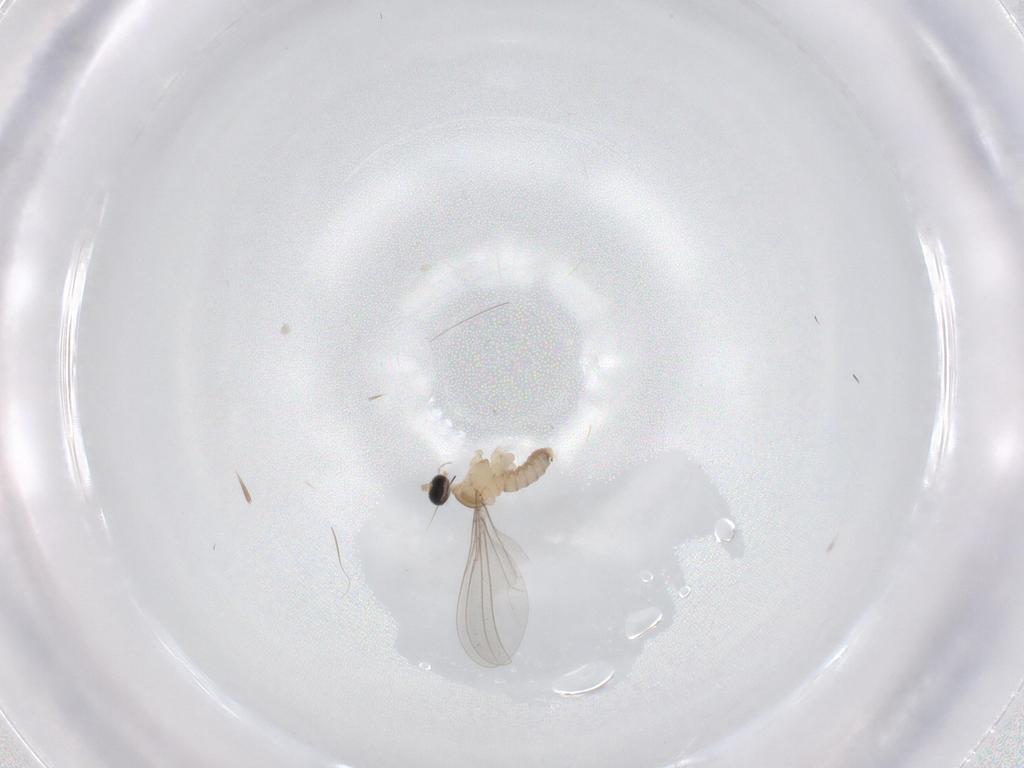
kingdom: Animalia
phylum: Arthropoda
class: Insecta
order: Diptera
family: Cecidomyiidae
